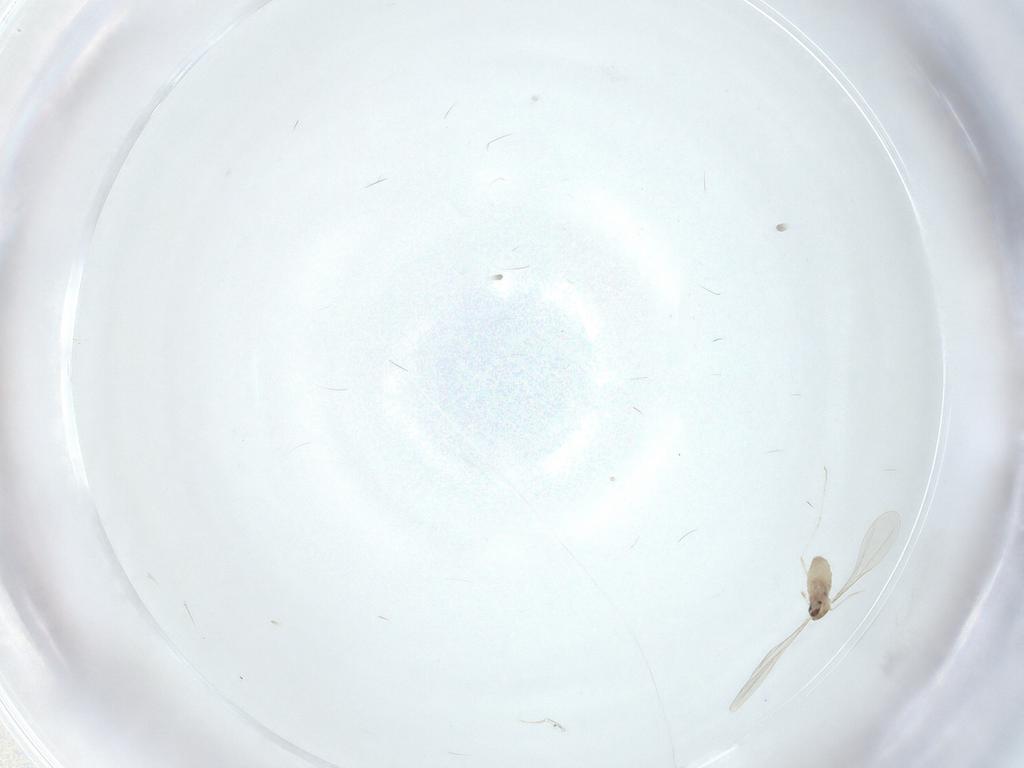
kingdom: Animalia
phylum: Arthropoda
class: Insecta
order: Diptera
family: Cecidomyiidae
